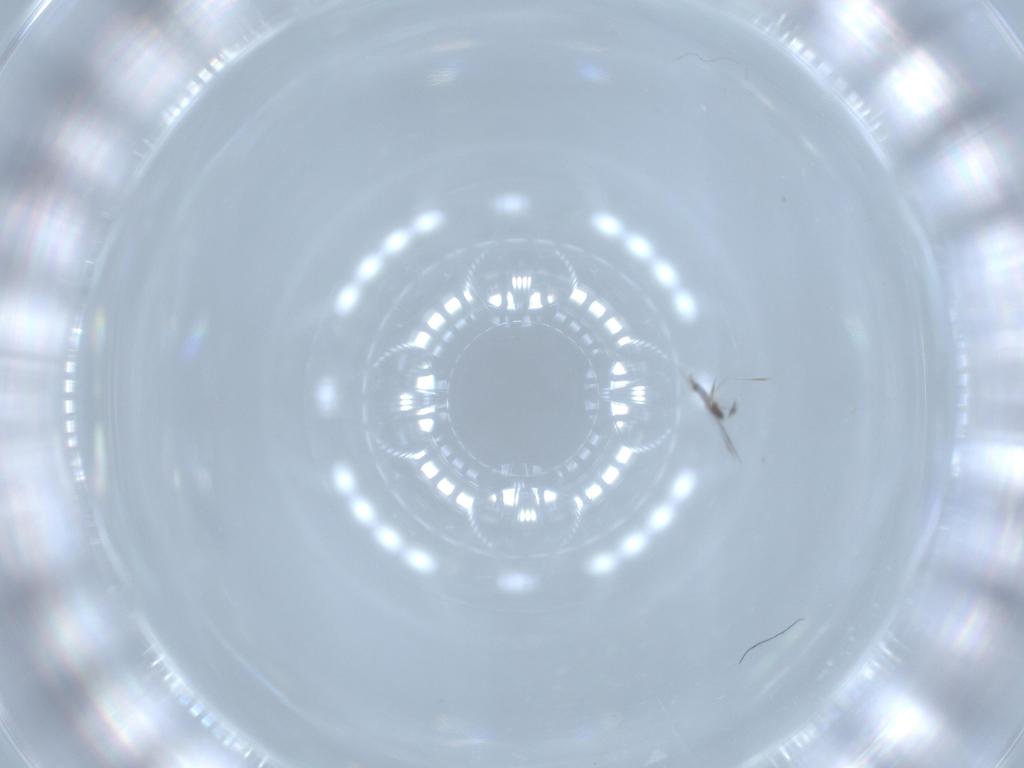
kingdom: Animalia
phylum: Arthropoda
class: Insecta
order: Hymenoptera
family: Mymaridae
